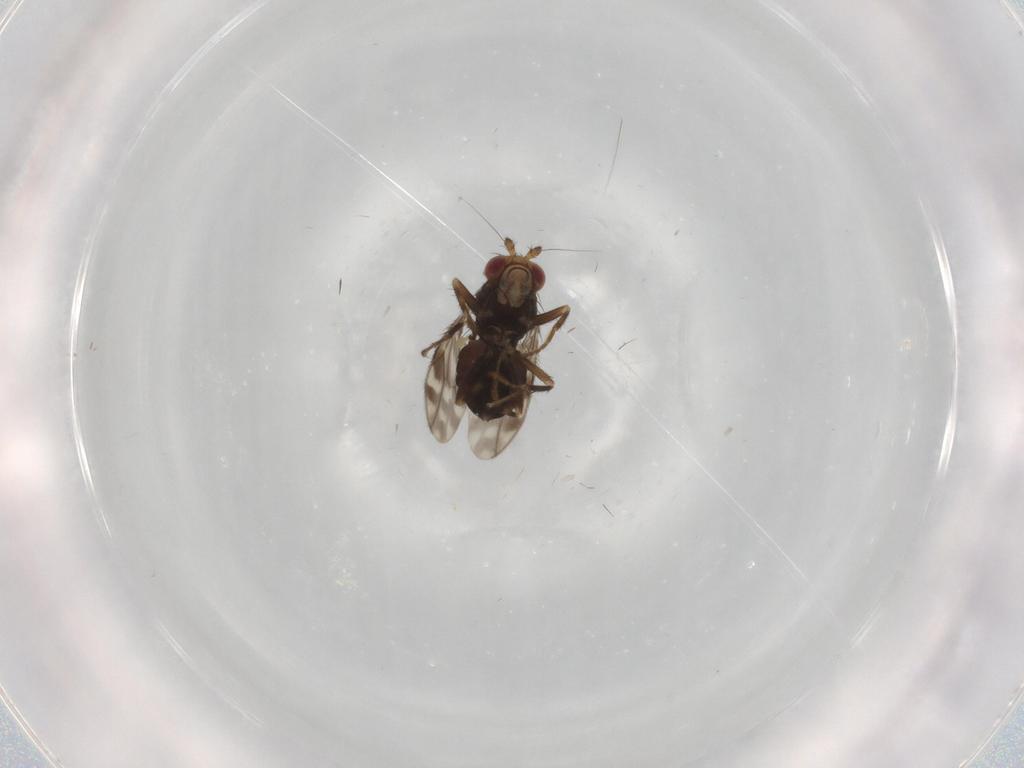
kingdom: Animalia
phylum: Arthropoda
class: Insecta
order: Diptera
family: Sphaeroceridae
